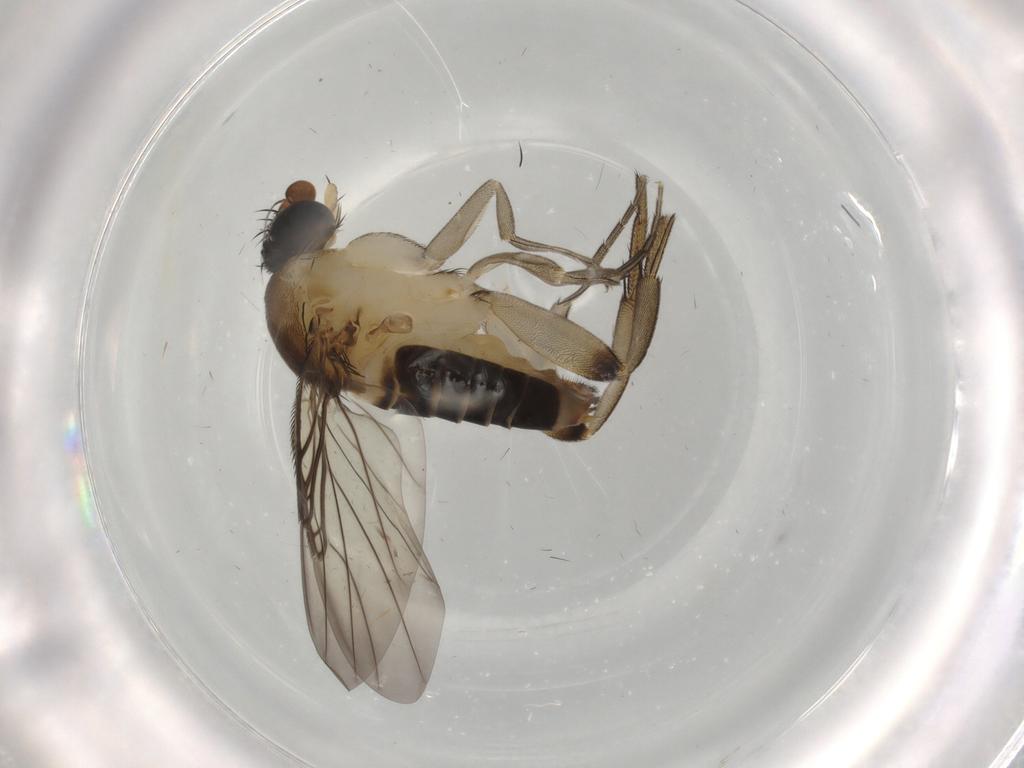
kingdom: Animalia
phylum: Arthropoda
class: Insecta
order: Diptera
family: Phoridae
